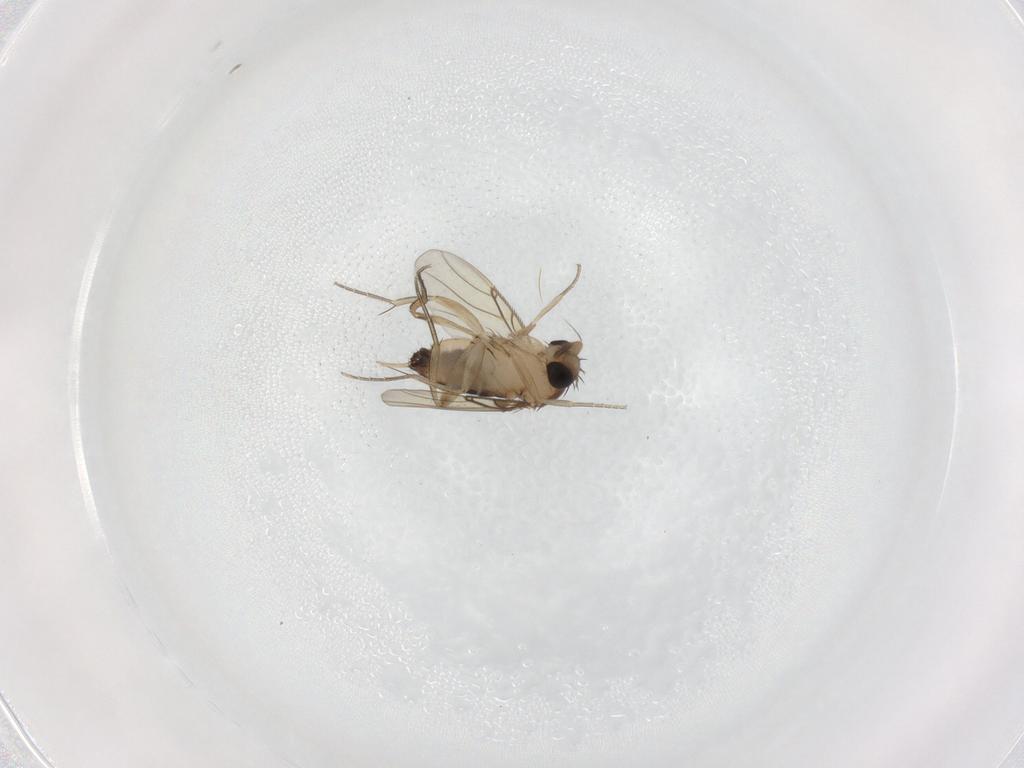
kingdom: Animalia
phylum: Arthropoda
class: Insecta
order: Diptera
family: Phoridae
